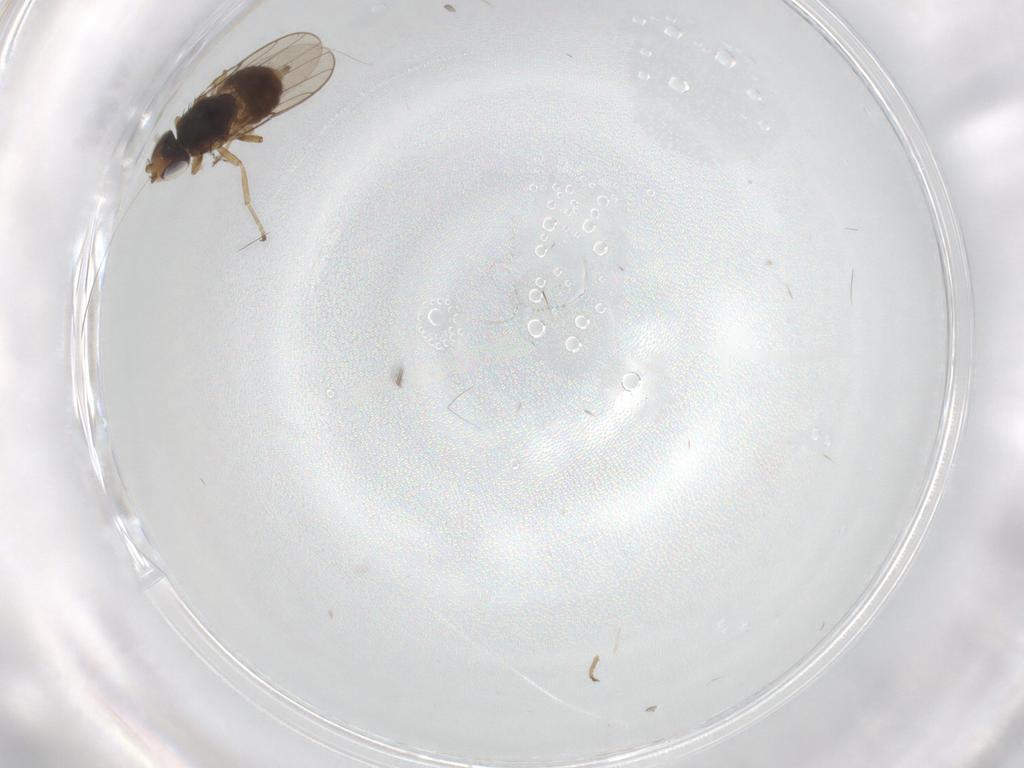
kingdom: Animalia
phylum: Arthropoda
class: Insecta
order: Diptera
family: Chloropidae
